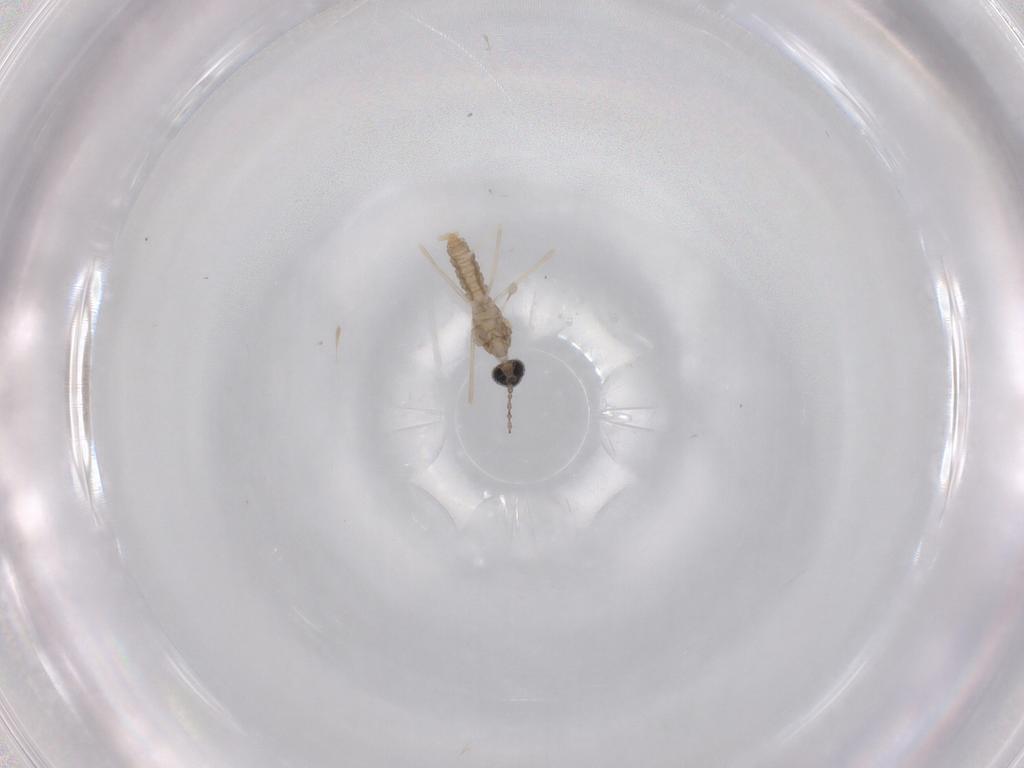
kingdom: Animalia
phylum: Arthropoda
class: Insecta
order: Diptera
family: Cecidomyiidae
